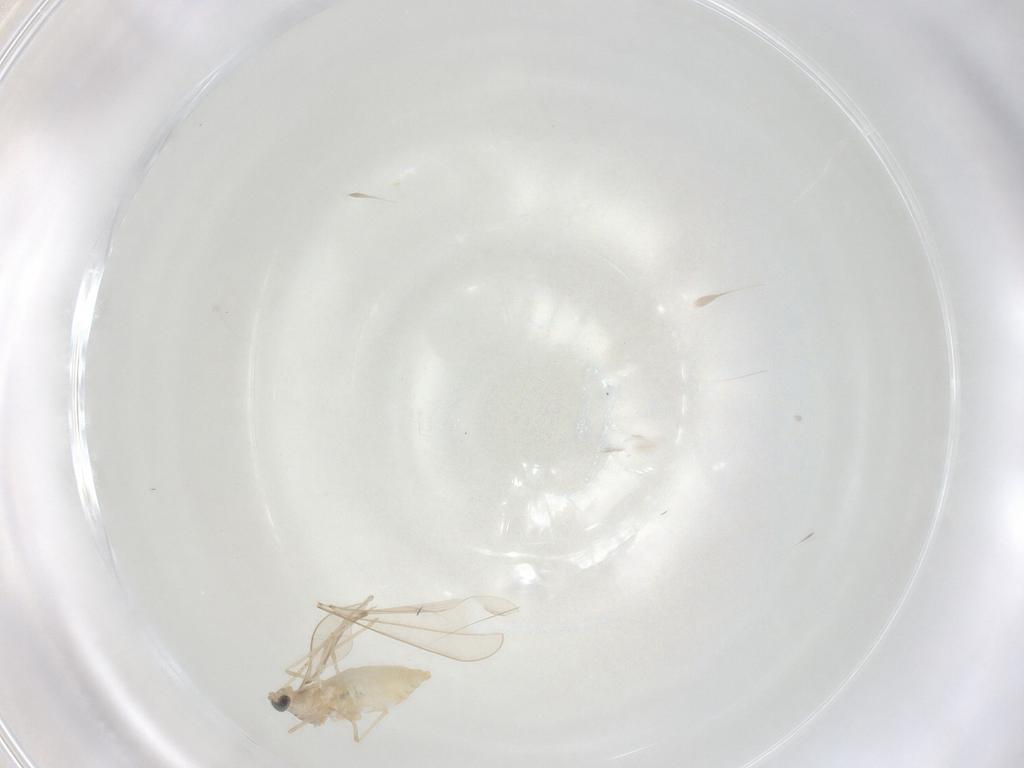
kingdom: Animalia
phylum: Arthropoda
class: Insecta
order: Diptera
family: Cecidomyiidae
